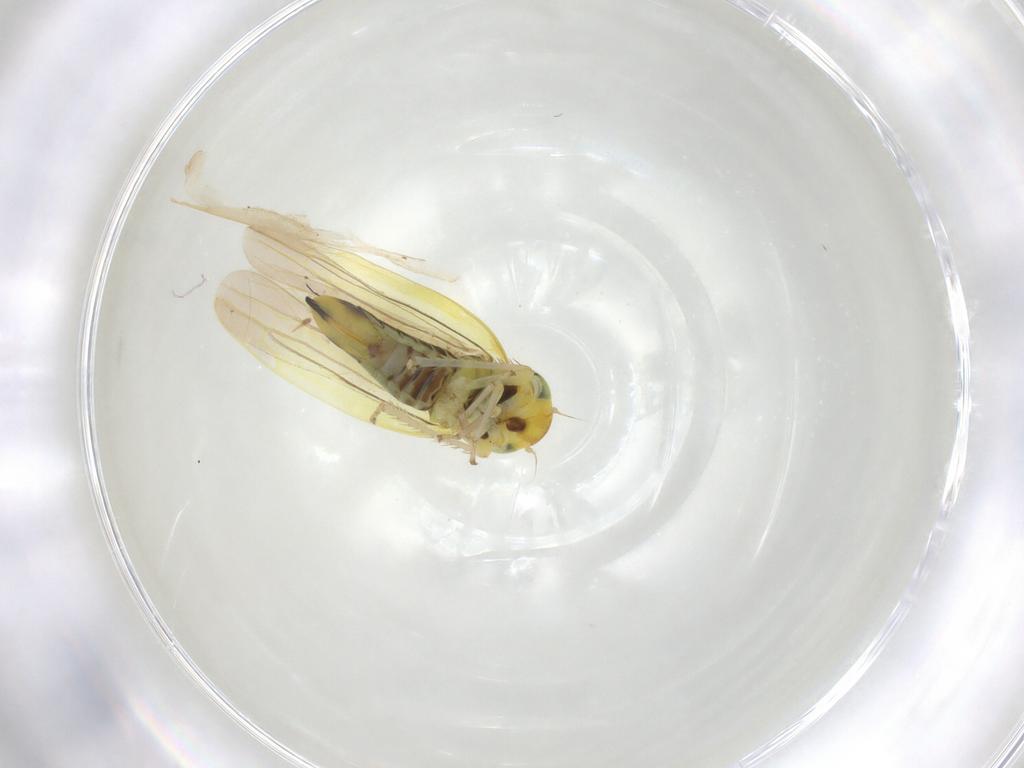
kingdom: Animalia
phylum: Arthropoda
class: Insecta
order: Hemiptera
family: Cicadellidae
